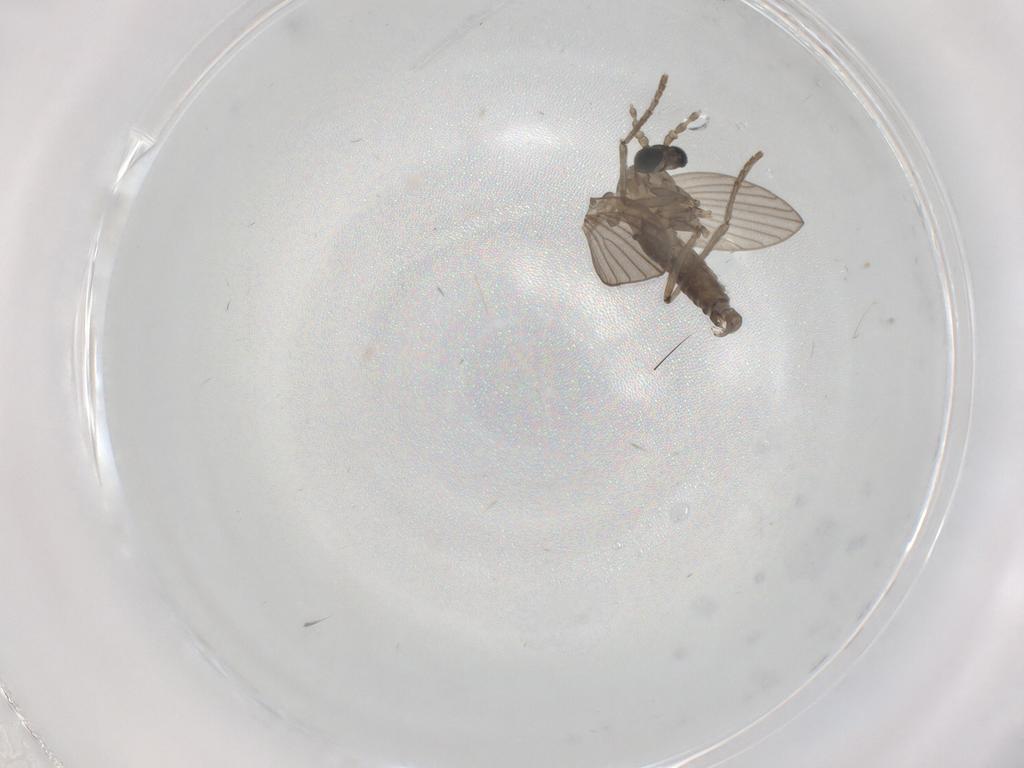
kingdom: Animalia
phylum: Arthropoda
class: Insecta
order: Diptera
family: Psychodidae
